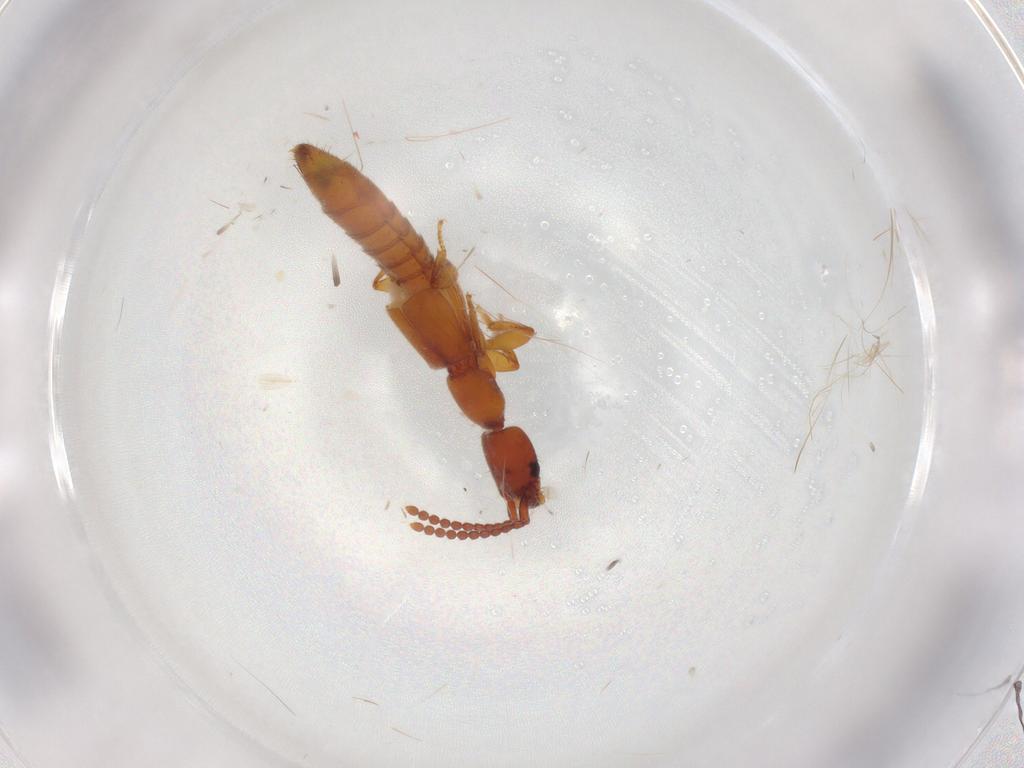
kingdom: Animalia
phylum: Arthropoda
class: Insecta
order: Coleoptera
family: Staphylinidae
